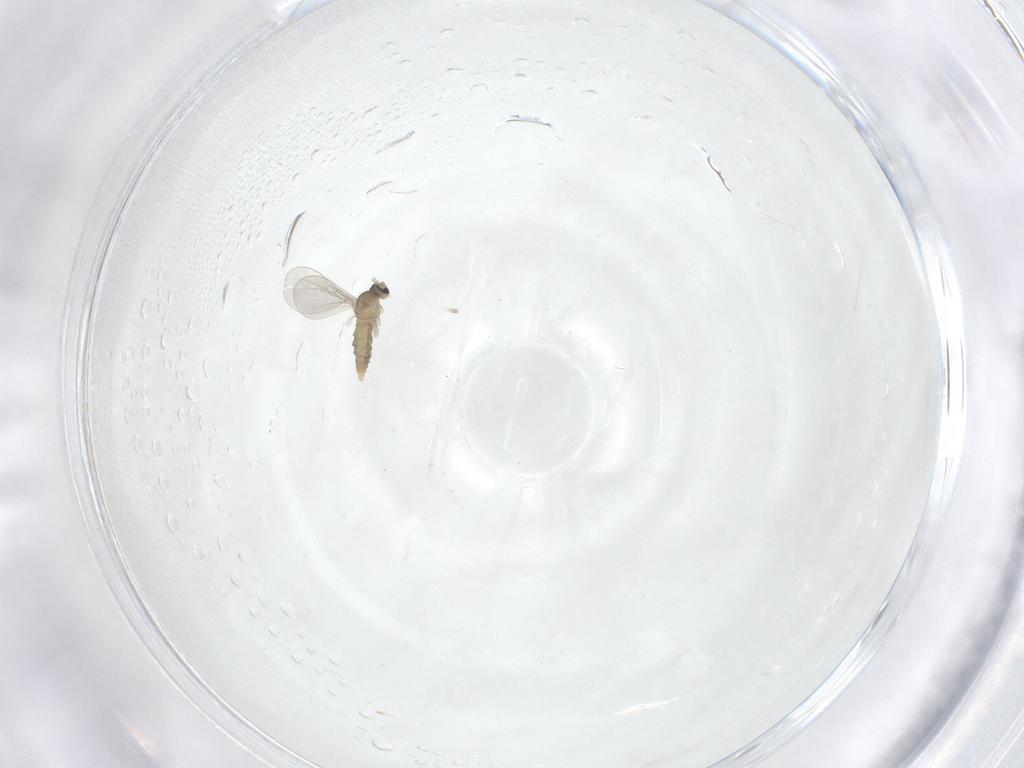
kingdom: Animalia
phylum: Arthropoda
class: Insecta
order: Diptera
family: Cecidomyiidae
